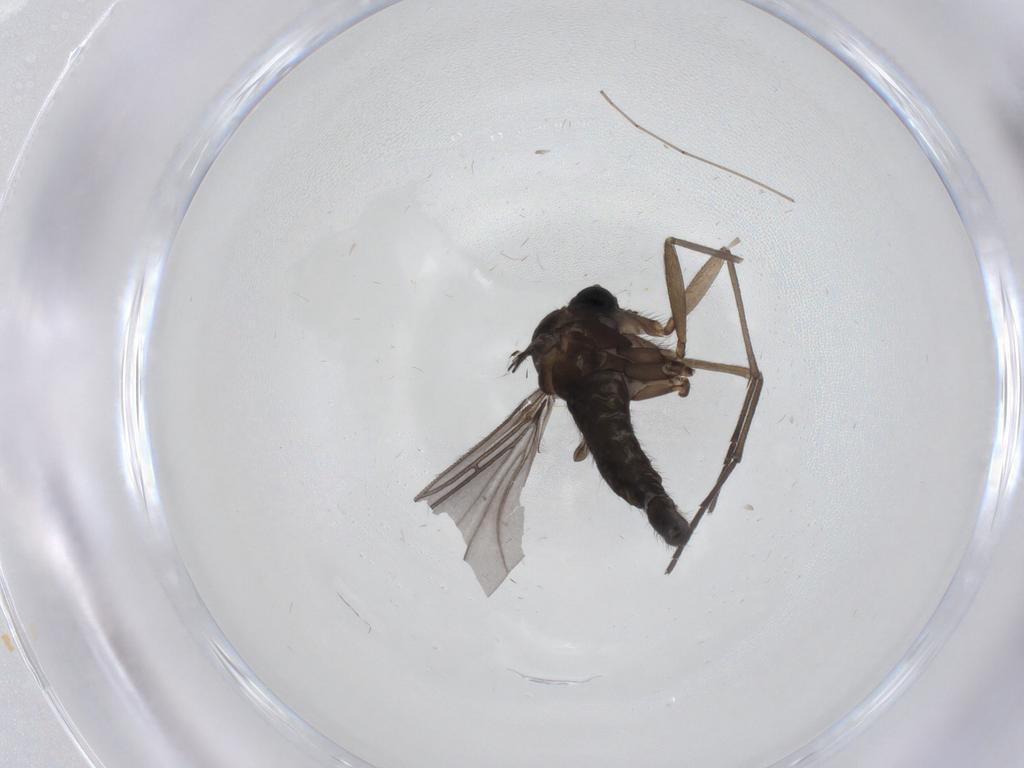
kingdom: Animalia
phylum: Arthropoda
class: Insecta
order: Diptera
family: Sciaridae
